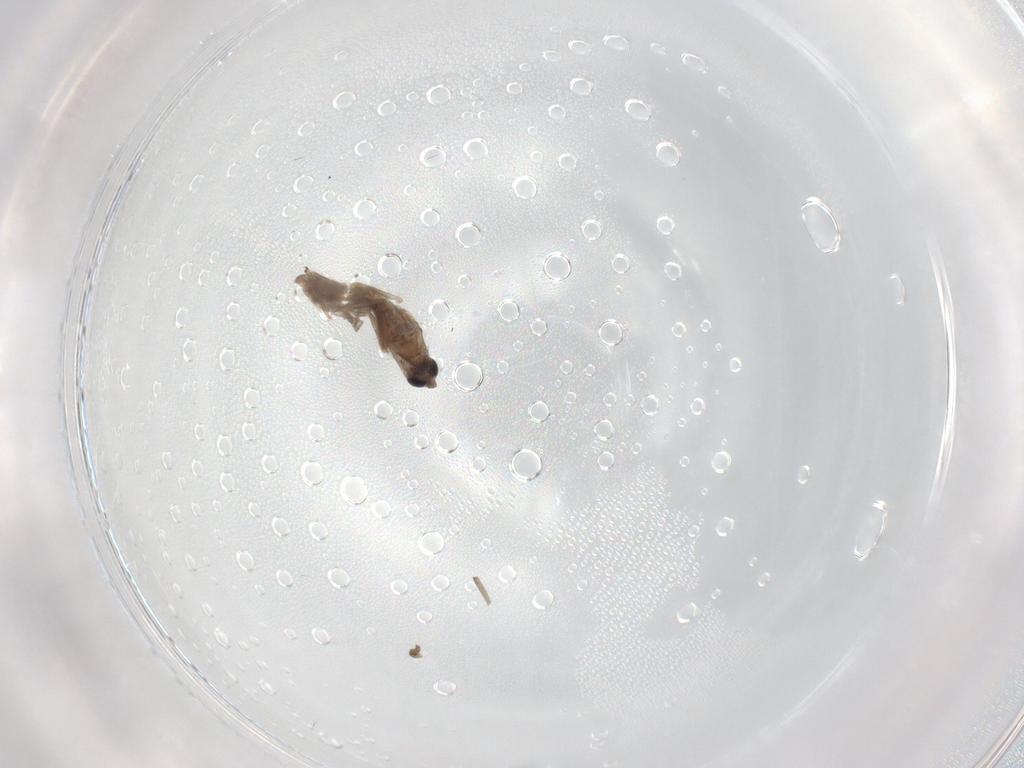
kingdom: Animalia
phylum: Arthropoda
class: Insecta
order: Diptera
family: Sciaridae
